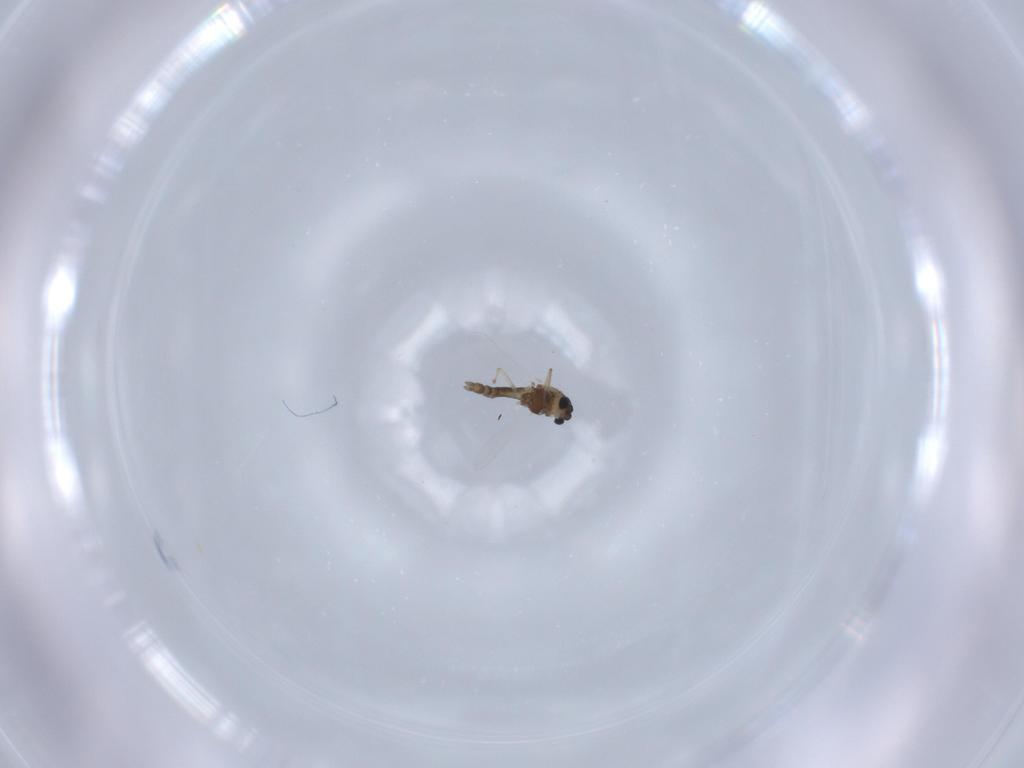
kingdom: Animalia
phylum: Arthropoda
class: Insecta
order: Diptera
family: Chironomidae
